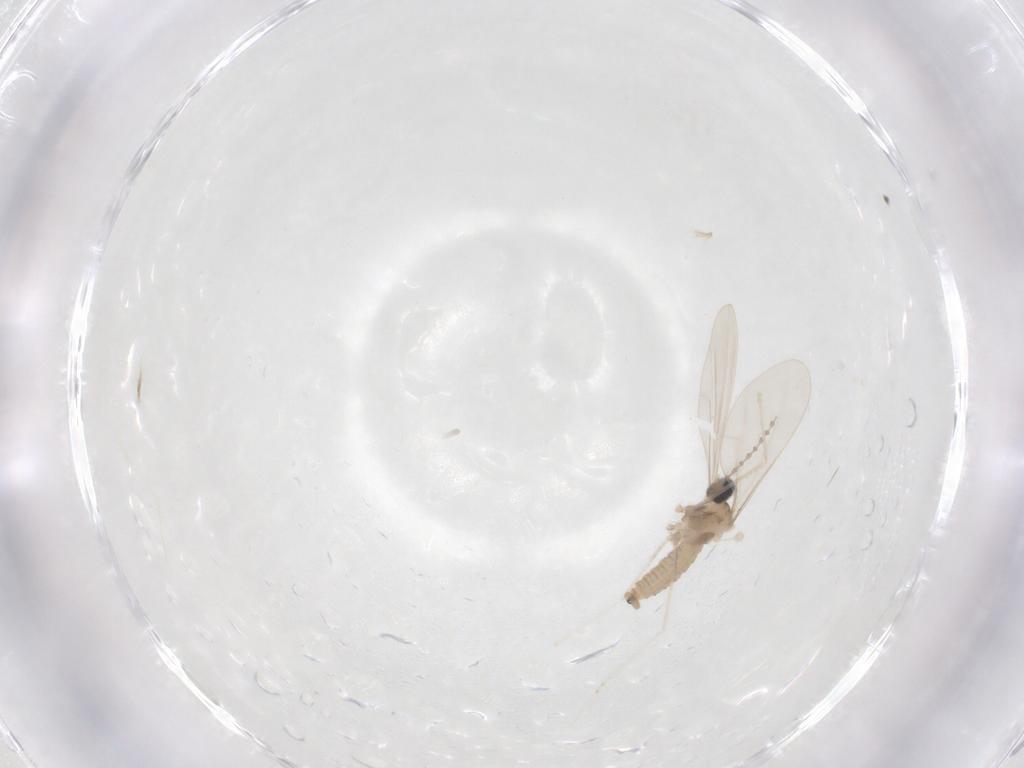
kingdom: Animalia
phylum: Arthropoda
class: Insecta
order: Diptera
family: Cecidomyiidae
